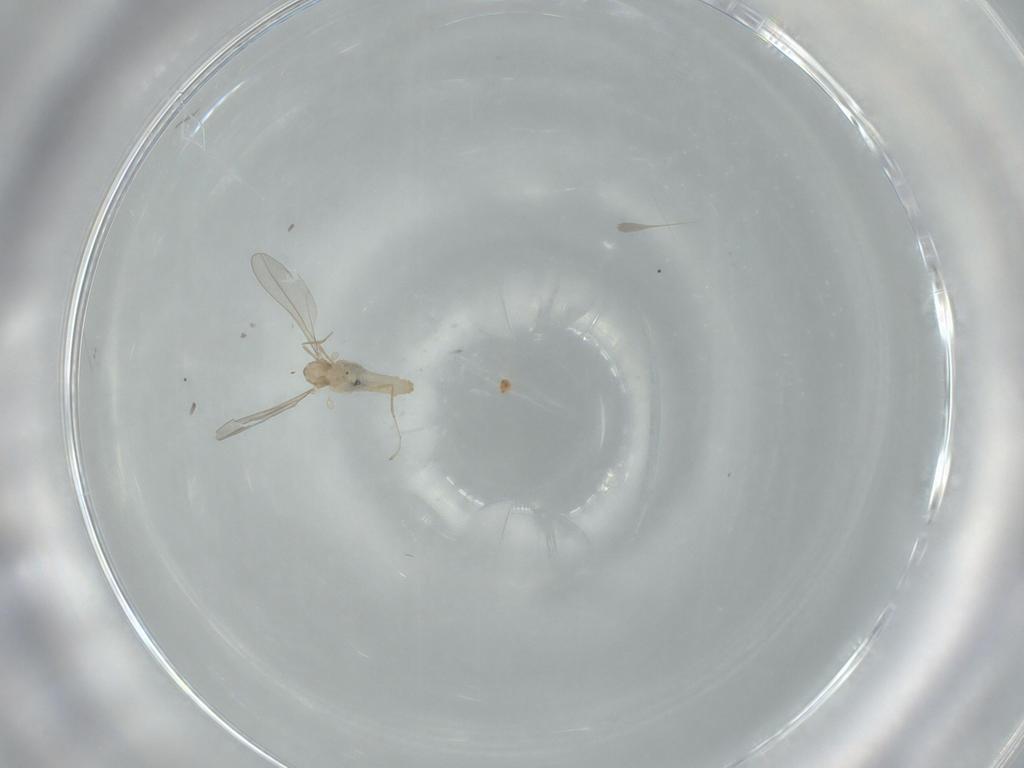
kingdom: Animalia
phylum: Arthropoda
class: Insecta
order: Diptera
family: Cecidomyiidae
